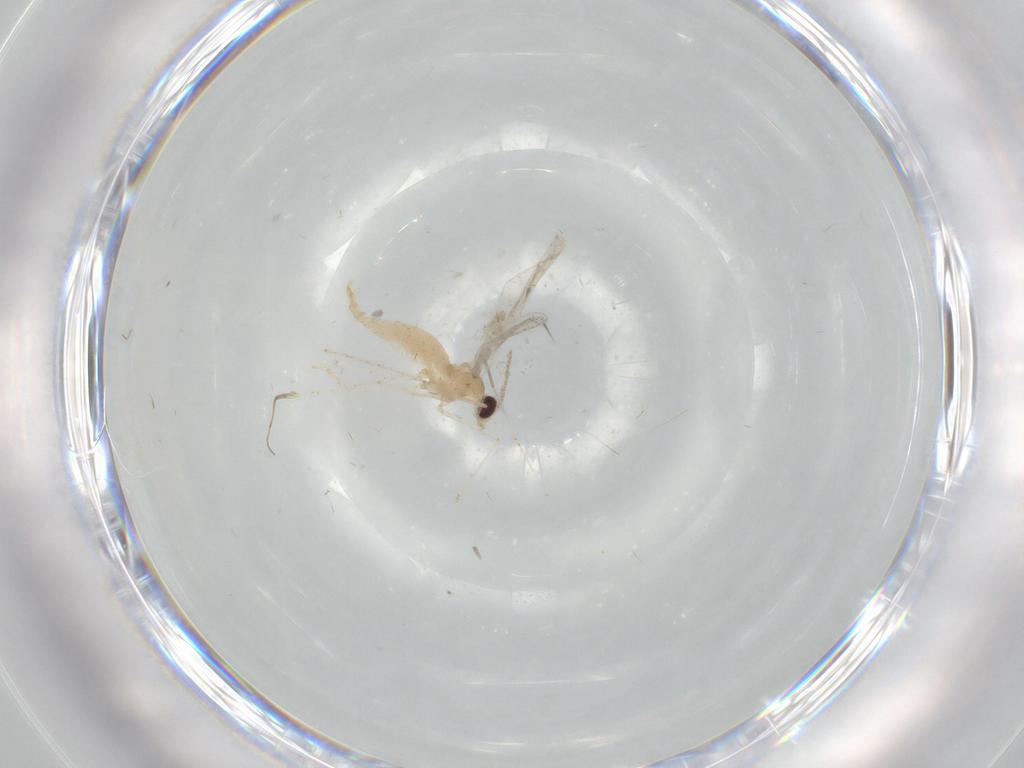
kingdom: Animalia
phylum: Arthropoda
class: Insecta
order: Diptera
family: Cecidomyiidae
